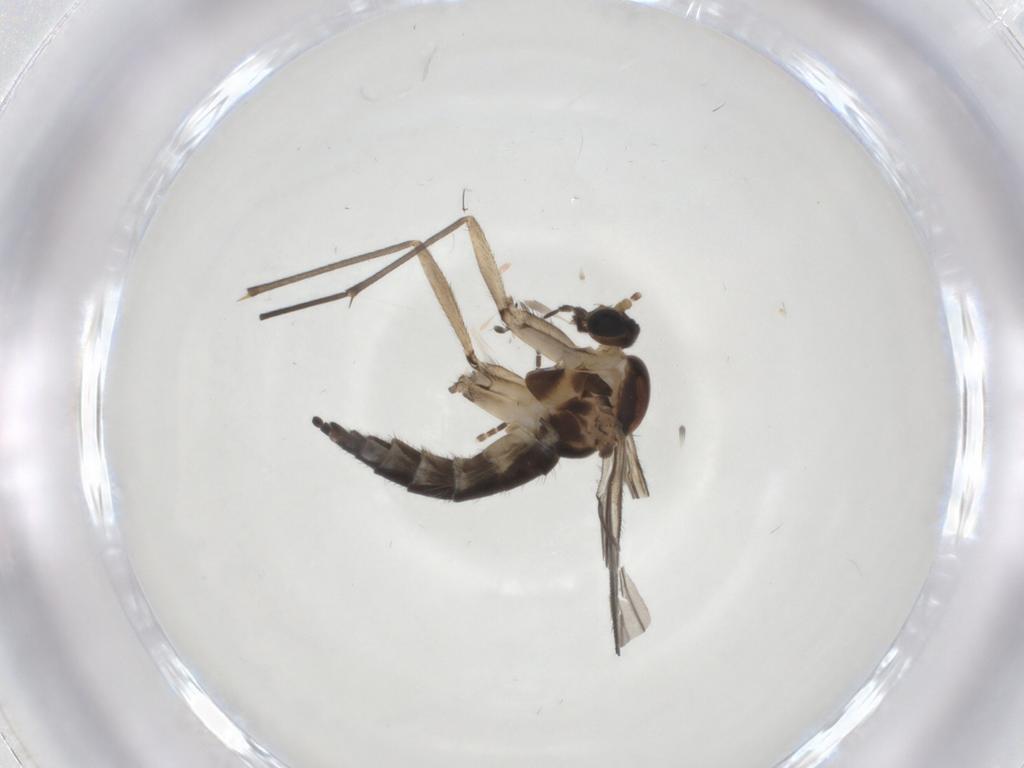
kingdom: Animalia
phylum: Arthropoda
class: Insecta
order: Diptera
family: Sciaridae
